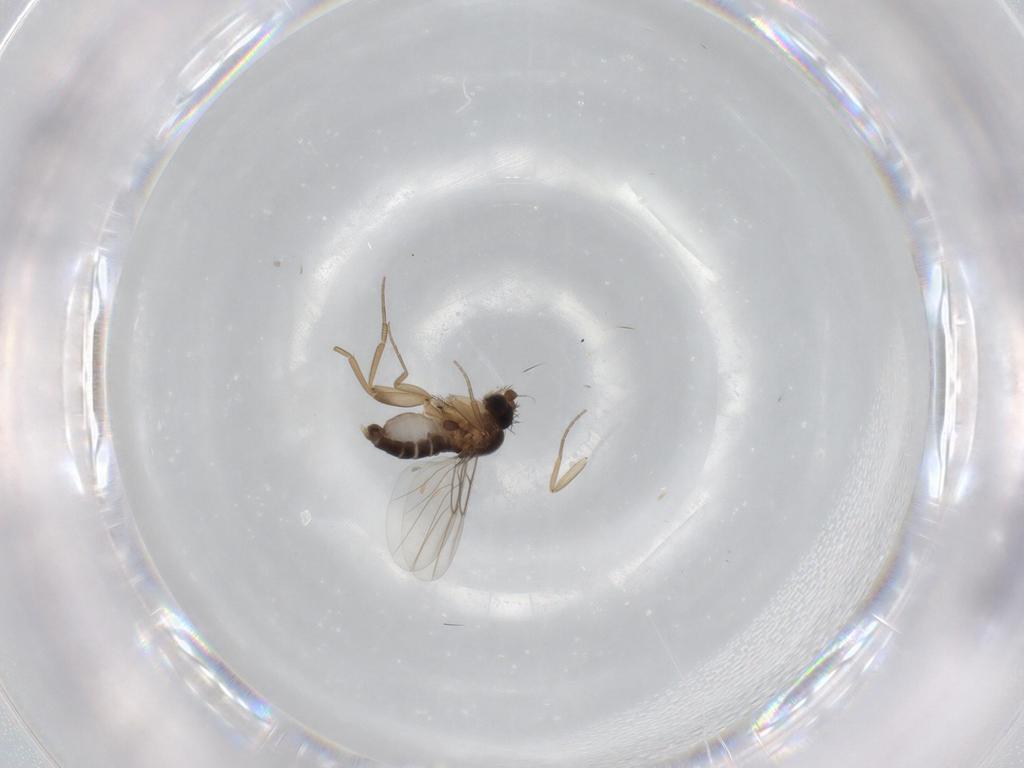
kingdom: Animalia
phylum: Arthropoda
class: Insecta
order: Diptera
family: Phoridae
